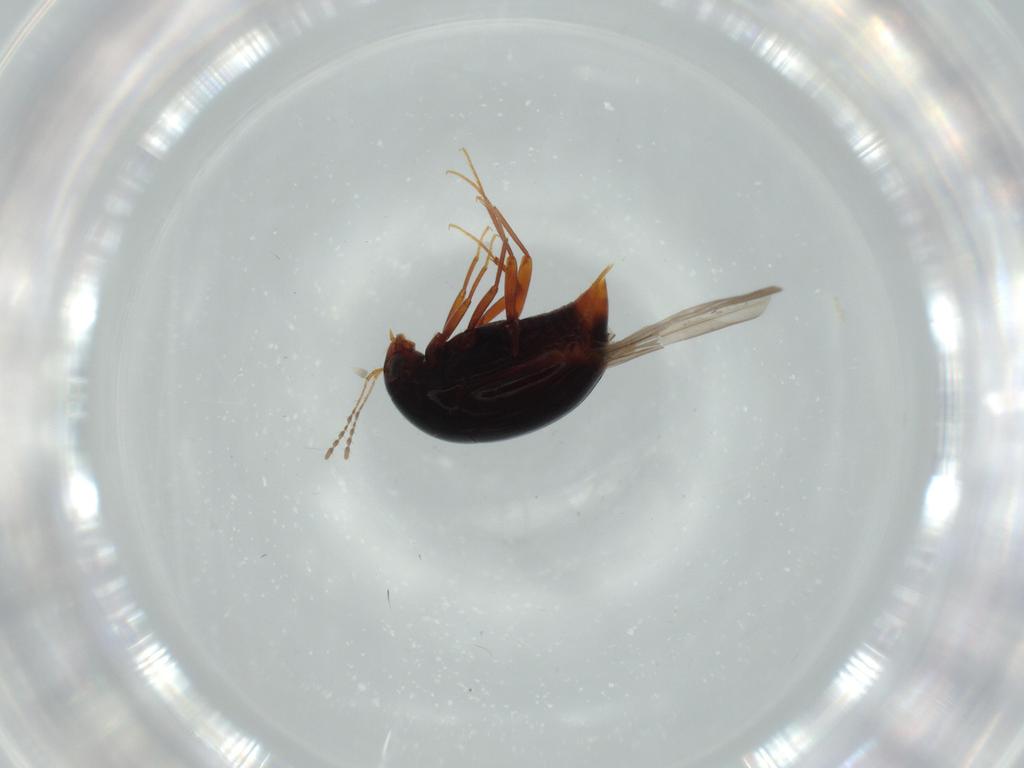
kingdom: Animalia
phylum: Arthropoda
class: Insecta
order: Coleoptera
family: Staphylinidae
